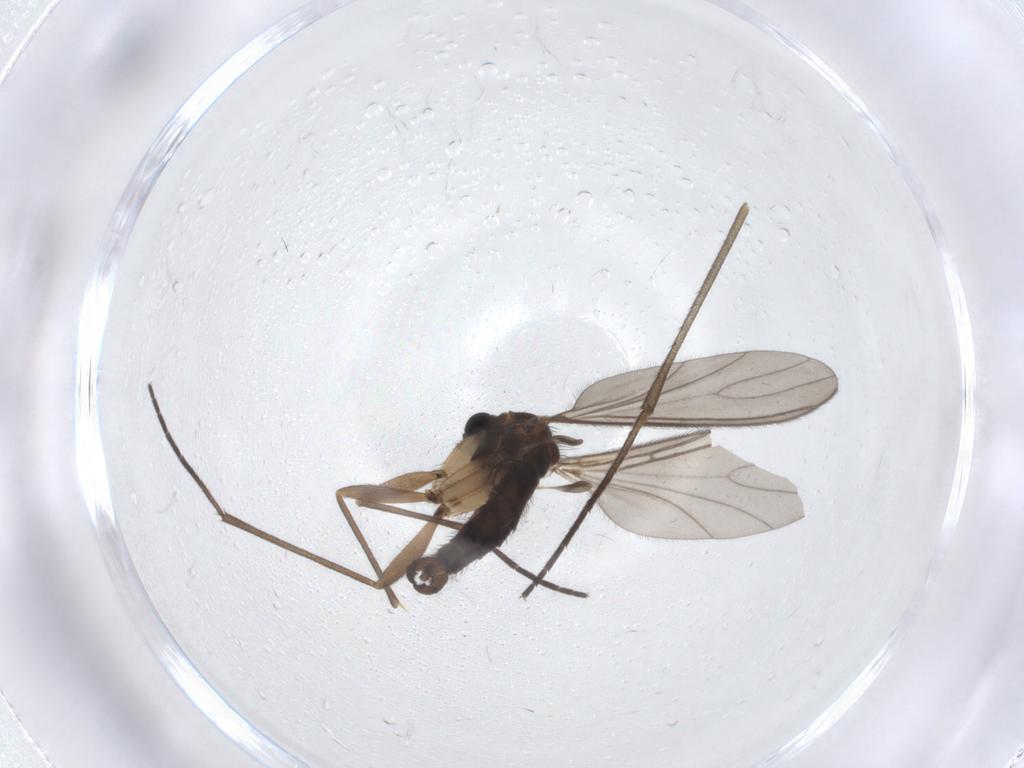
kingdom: Animalia
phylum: Arthropoda
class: Insecta
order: Diptera
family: Sciaridae
